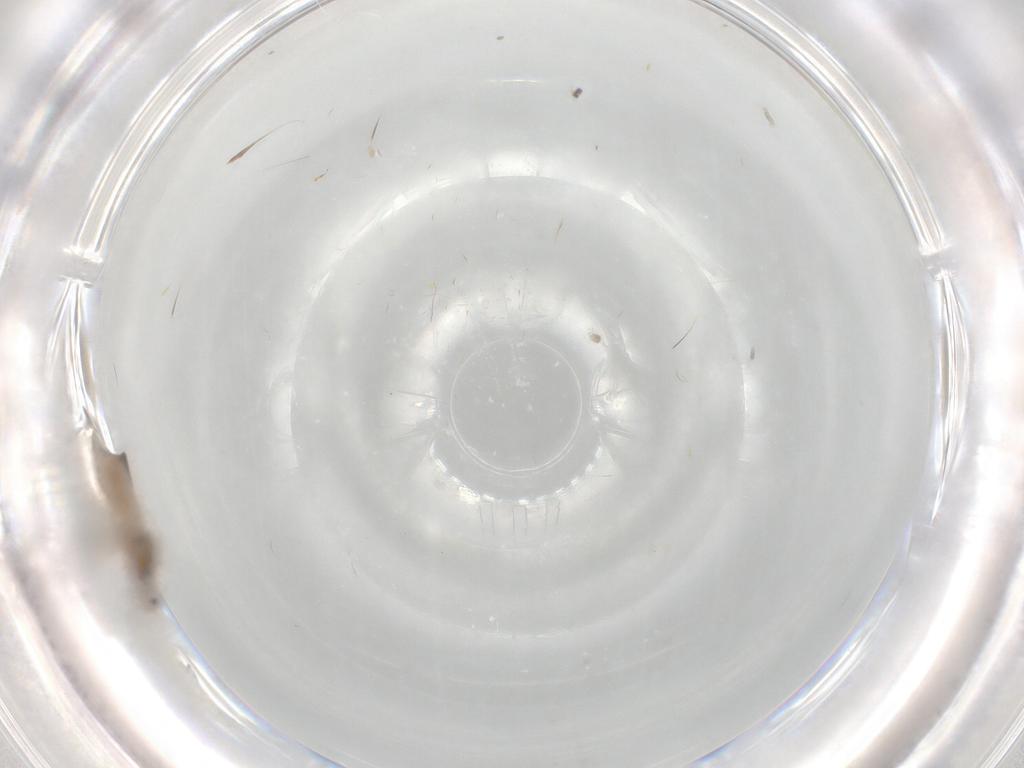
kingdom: Animalia
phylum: Arthropoda
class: Insecta
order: Diptera
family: Cecidomyiidae
